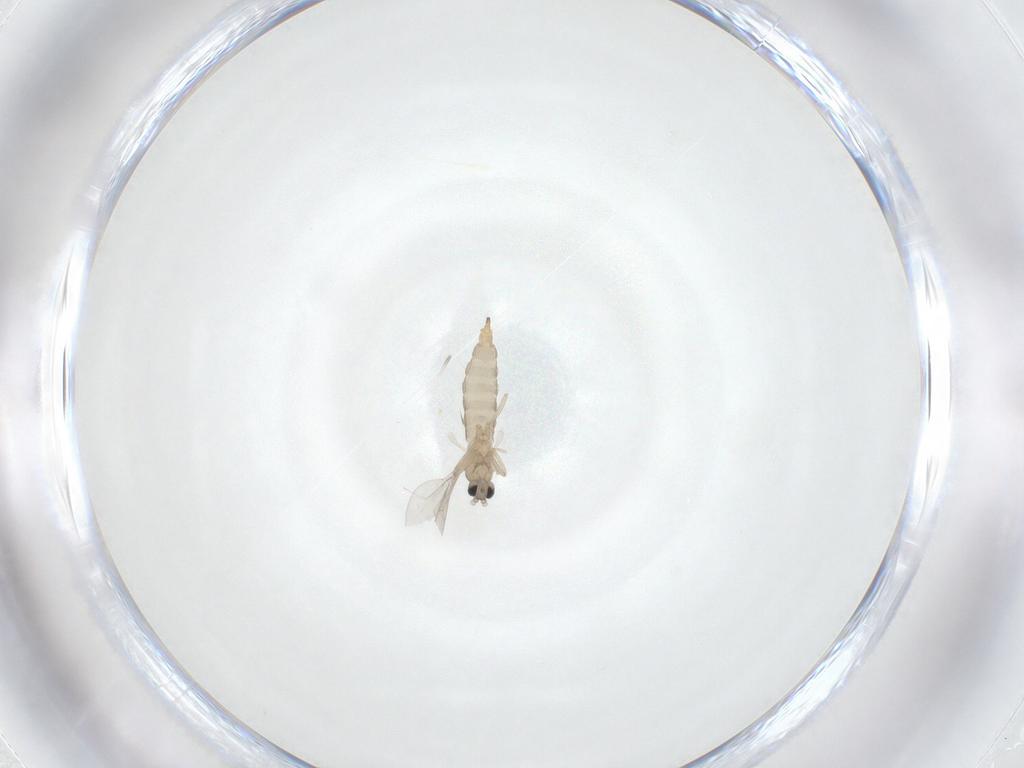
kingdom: Animalia
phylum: Arthropoda
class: Insecta
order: Diptera
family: Cecidomyiidae
